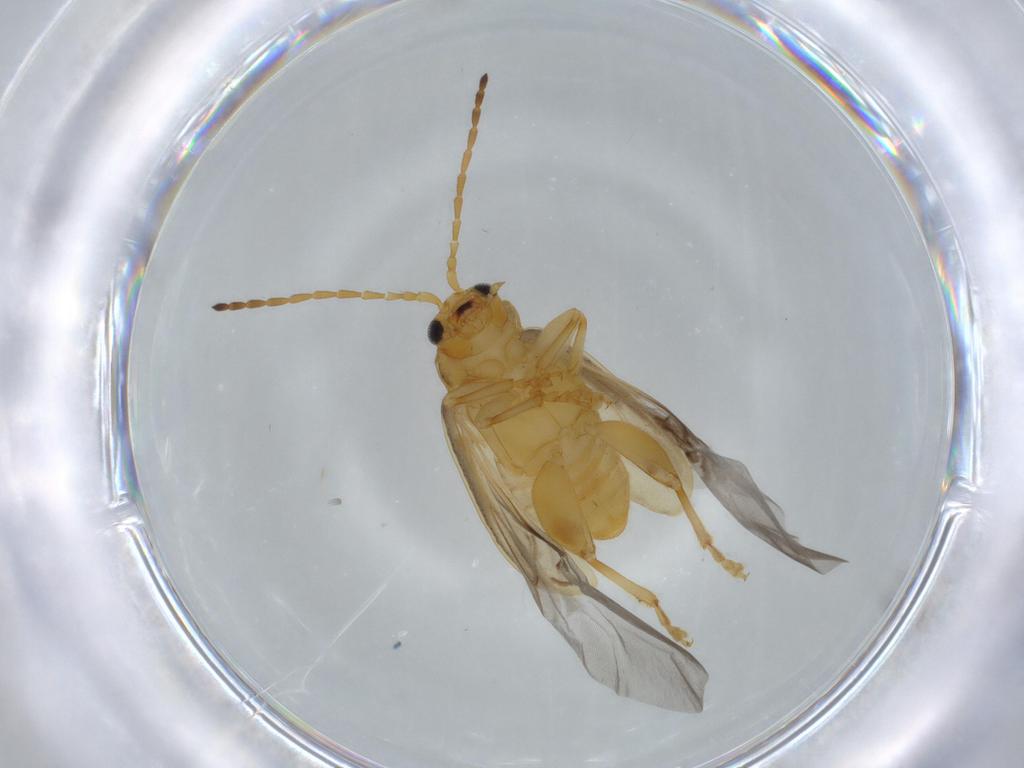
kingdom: Animalia
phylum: Arthropoda
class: Insecta
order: Coleoptera
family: Chrysomelidae
